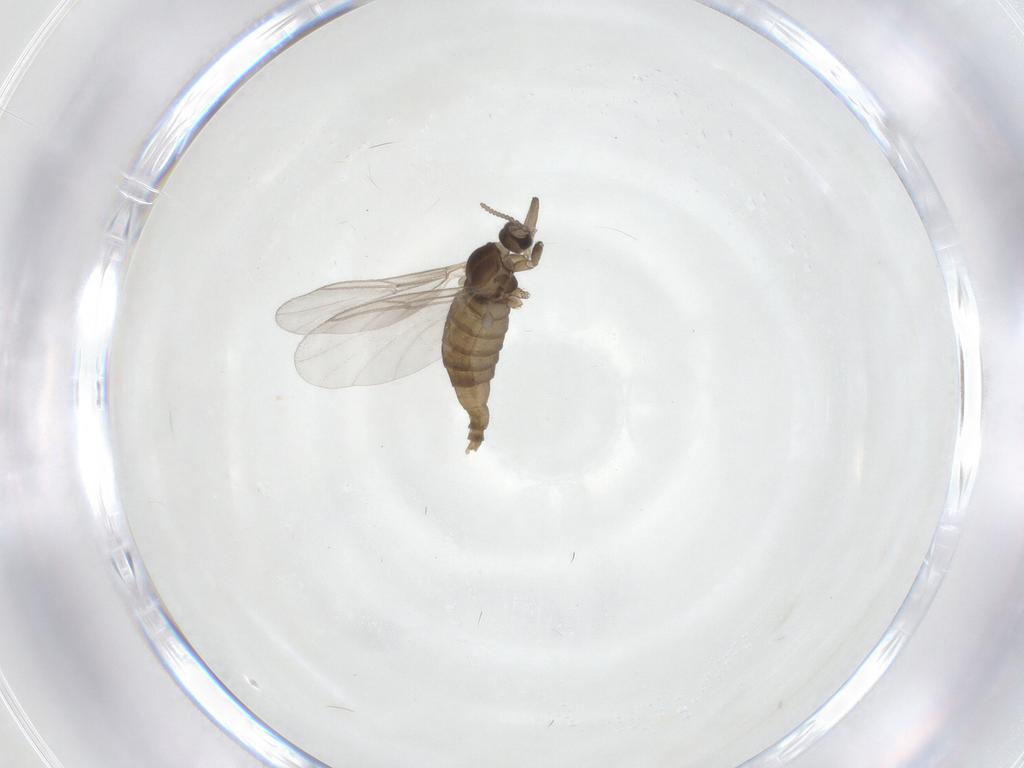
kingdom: Animalia
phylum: Arthropoda
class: Insecta
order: Diptera
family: Cecidomyiidae
